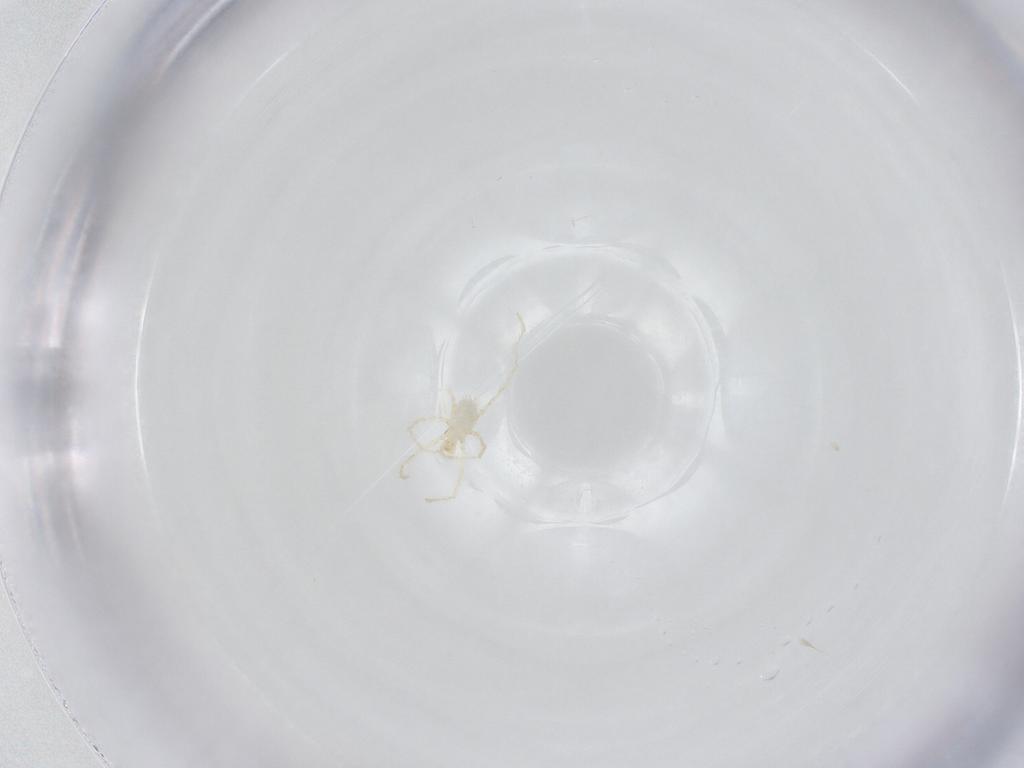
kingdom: Animalia
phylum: Arthropoda
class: Arachnida
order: Trombidiformes
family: Erythraeidae
